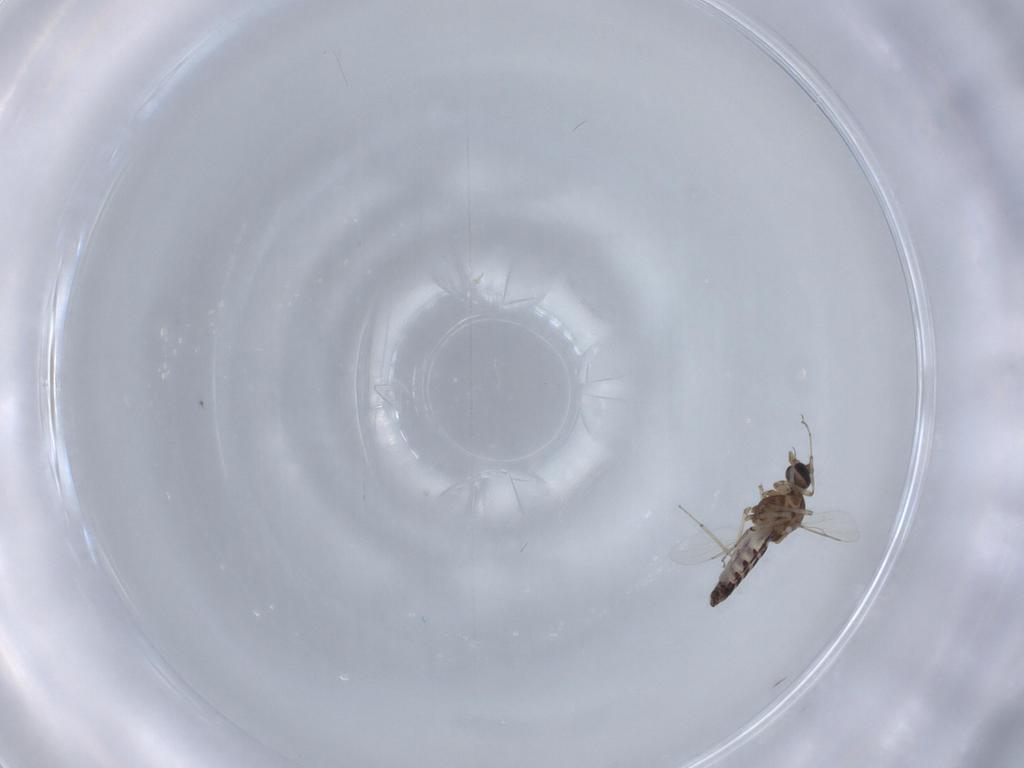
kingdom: Animalia
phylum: Arthropoda
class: Insecta
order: Diptera
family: Ceratopogonidae
